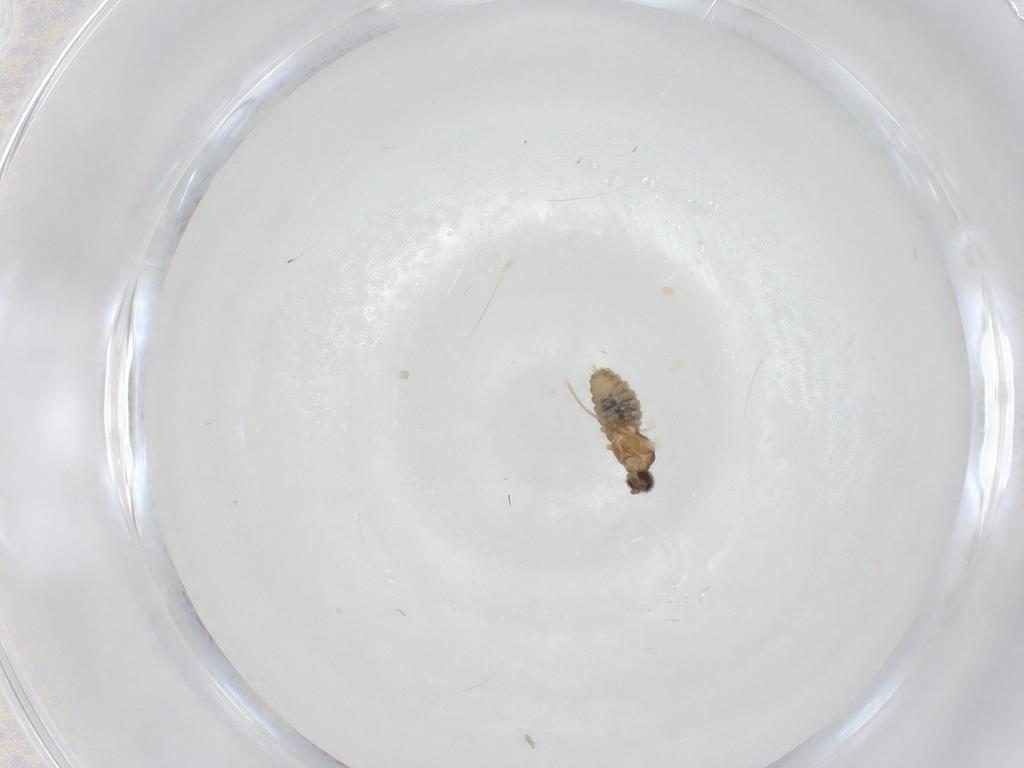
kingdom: Animalia
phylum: Arthropoda
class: Insecta
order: Diptera
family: Cecidomyiidae
